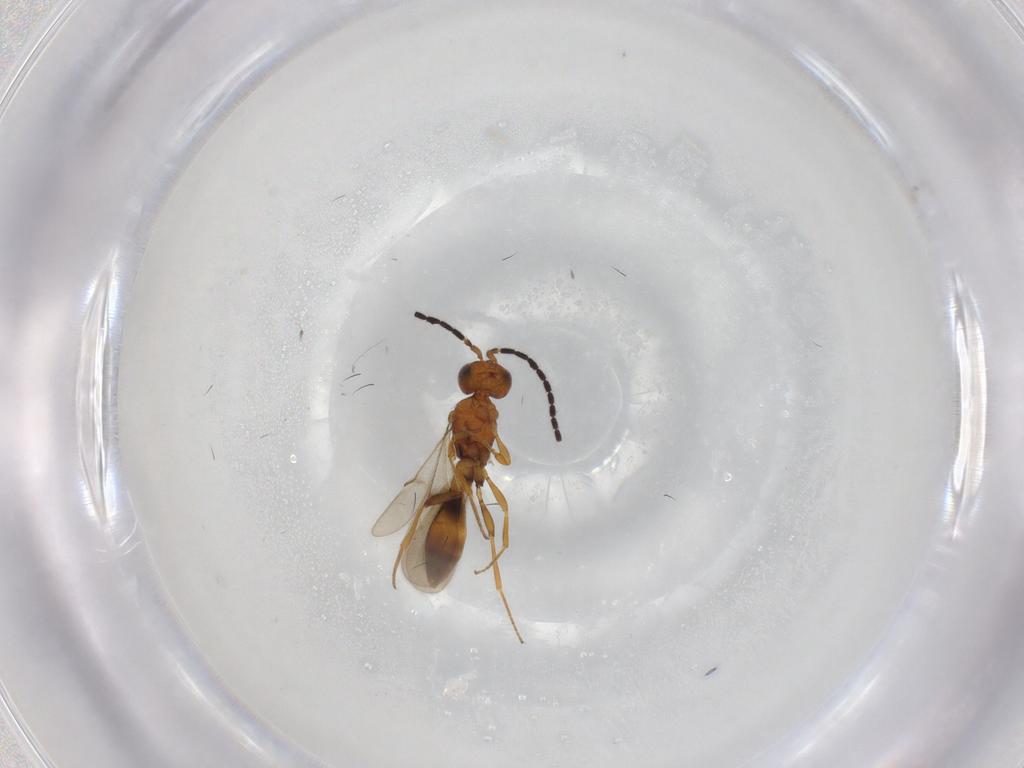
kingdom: Animalia
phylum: Arthropoda
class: Insecta
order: Hymenoptera
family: Scelionidae
